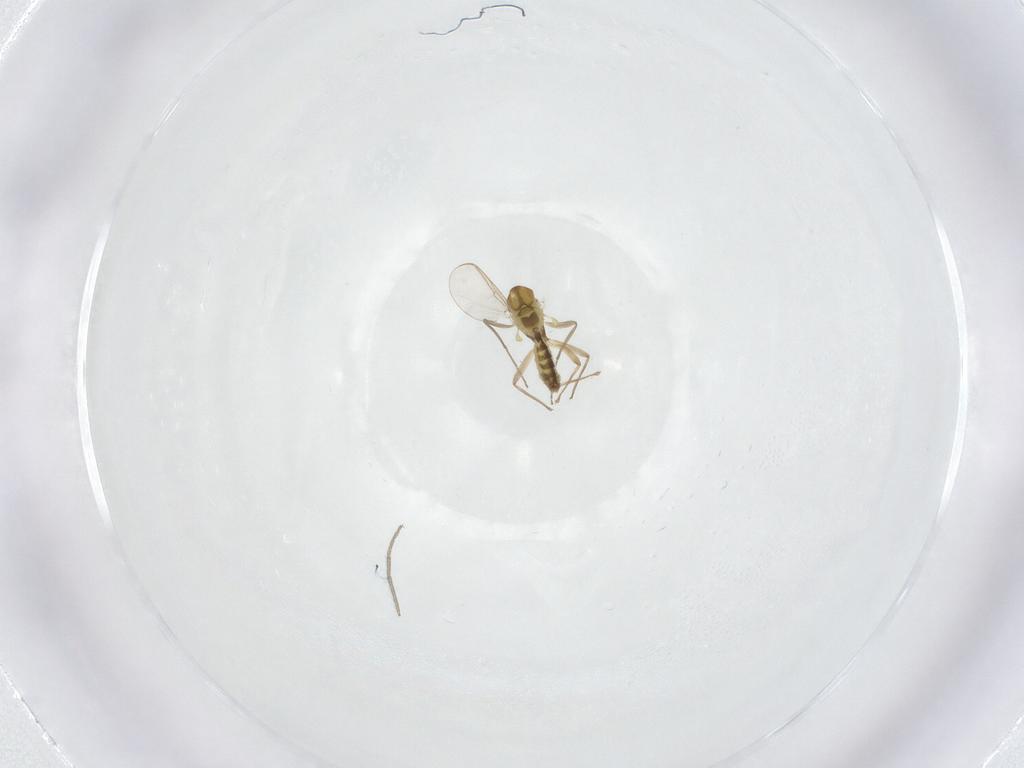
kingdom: Animalia
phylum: Arthropoda
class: Insecta
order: Diptera
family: Chironomidae
